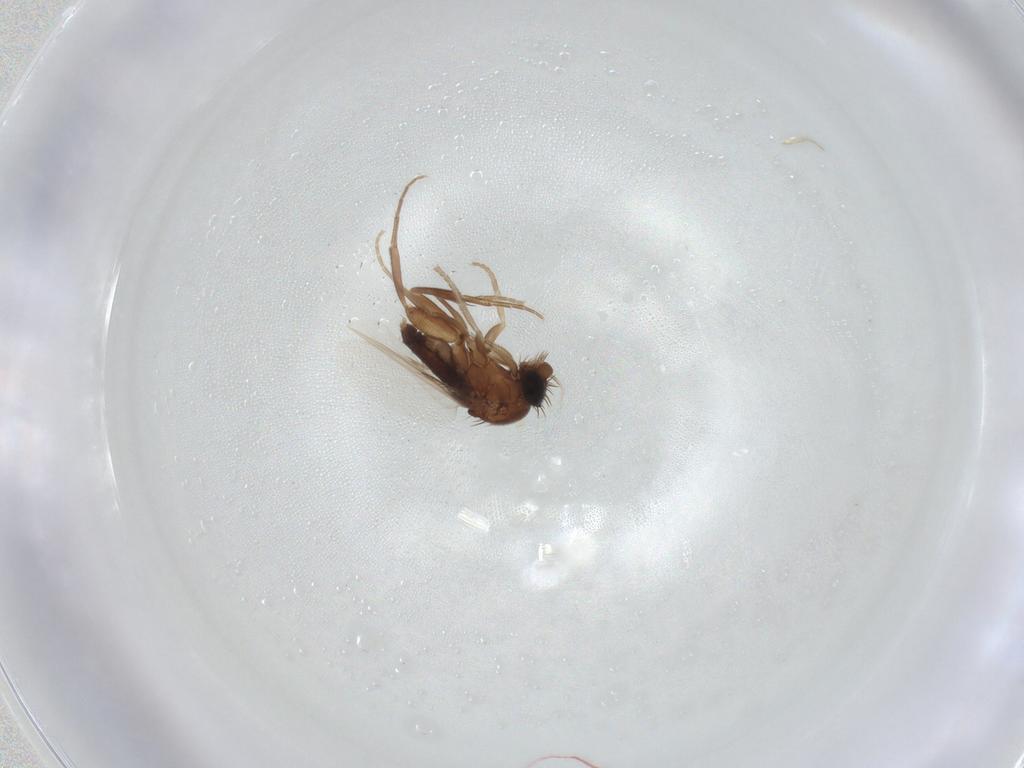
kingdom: Animalia
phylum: Arthropoda
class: Insecta
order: Diptera
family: Phoridae
